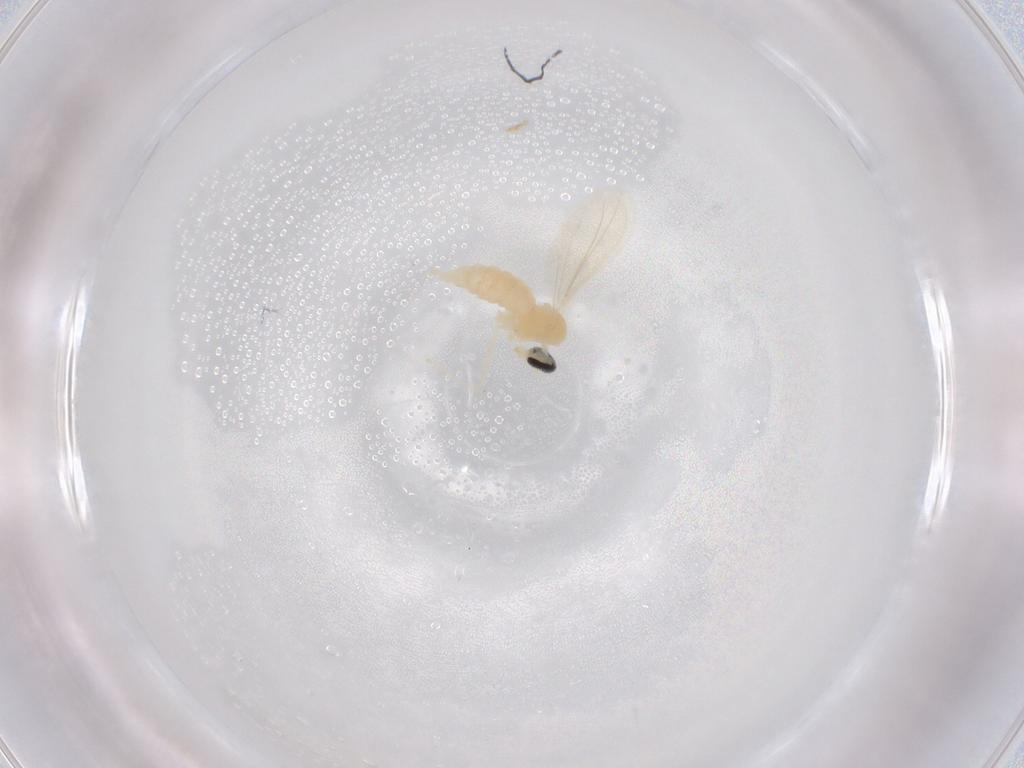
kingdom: Animalia
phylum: Arthropoda
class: Insecta
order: Diptera
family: Cecidomyiidae
